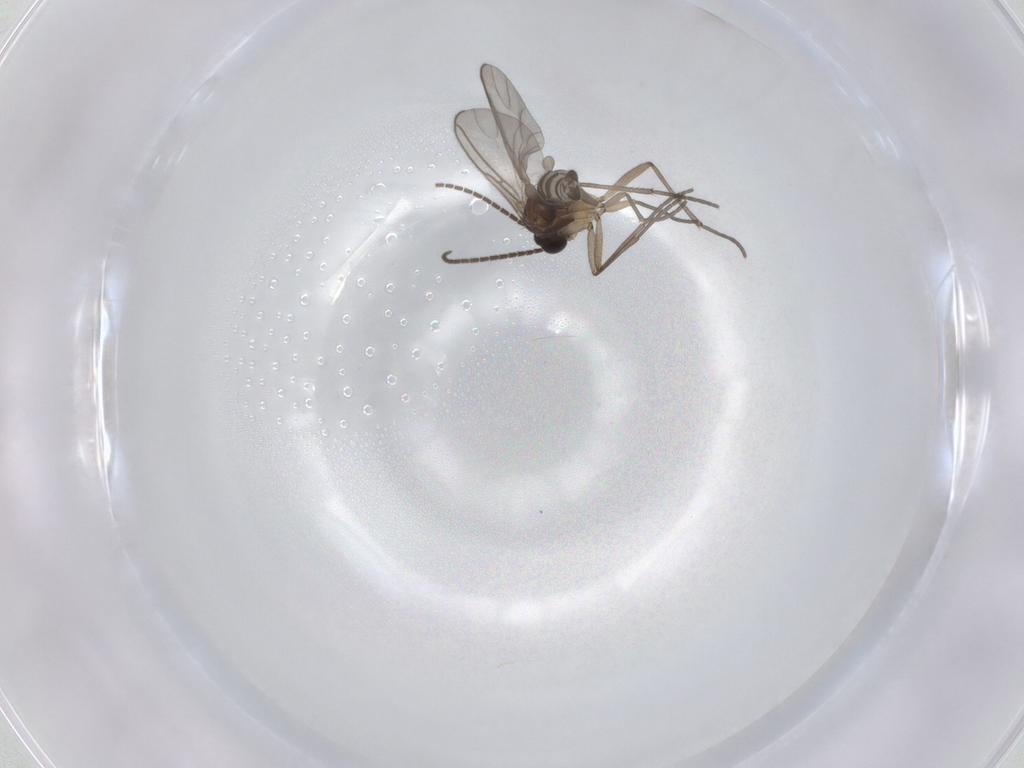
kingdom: Animalia
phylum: Arthropoda
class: Insecta
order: Diptera
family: Sciaridae
